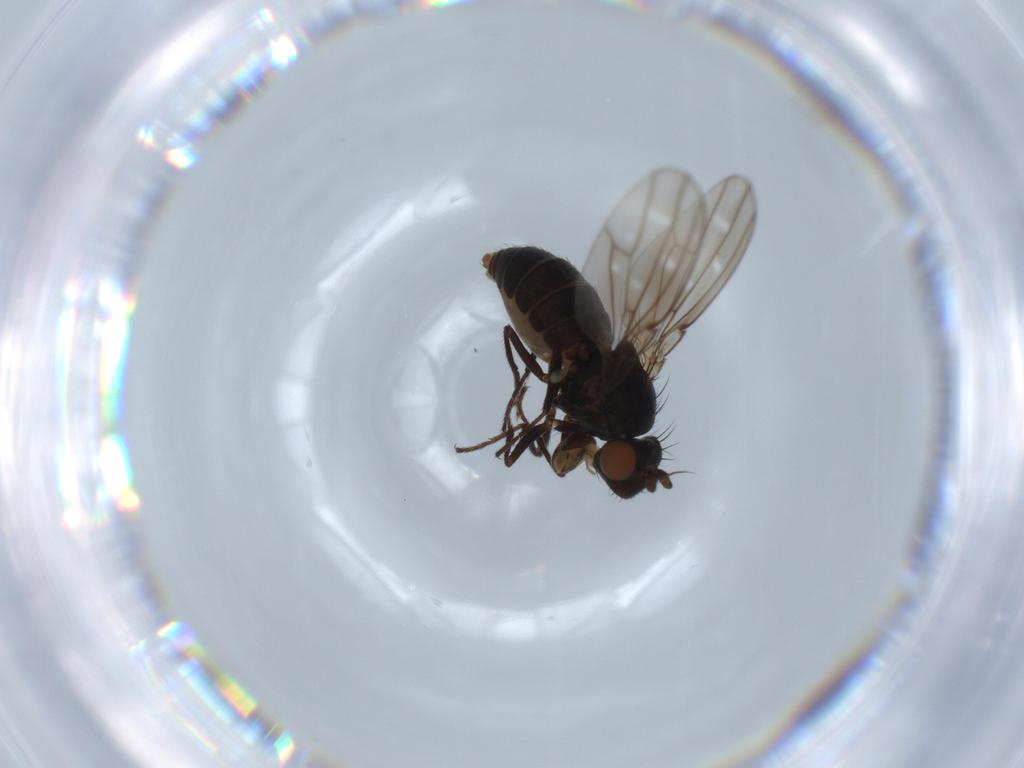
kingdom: Animalia
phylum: Arthropoda
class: Insecta
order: Diptera
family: Ephydridae
